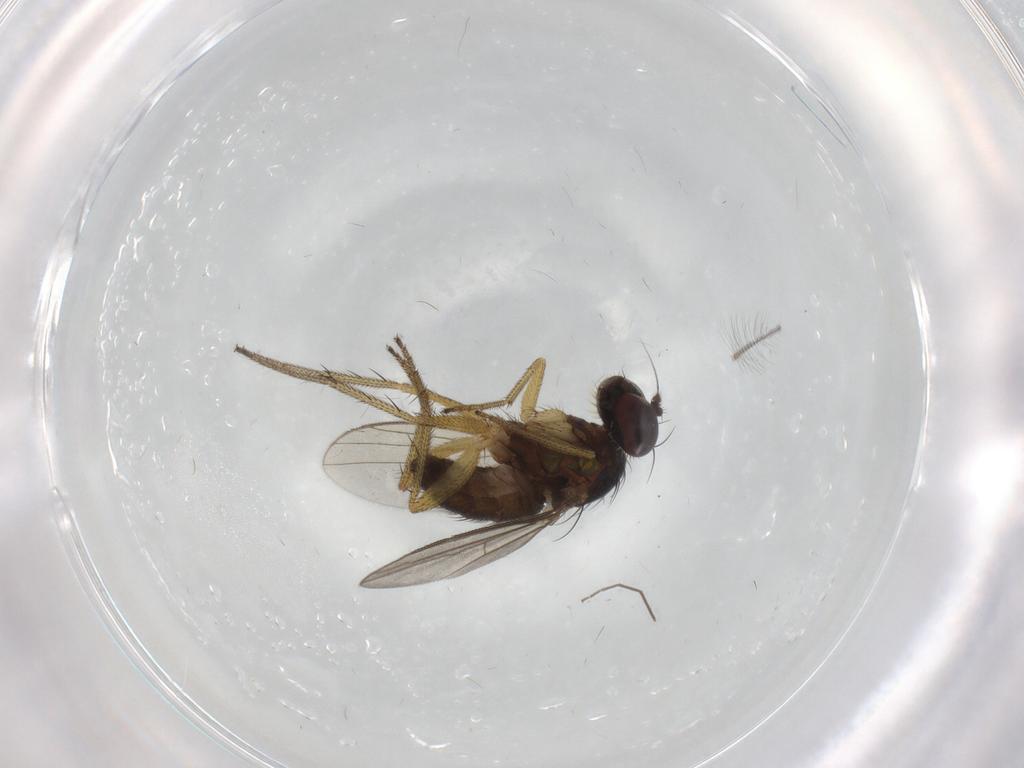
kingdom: Animalia
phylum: Arthropoda
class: Insecta
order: Diptera
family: Chironomidae
